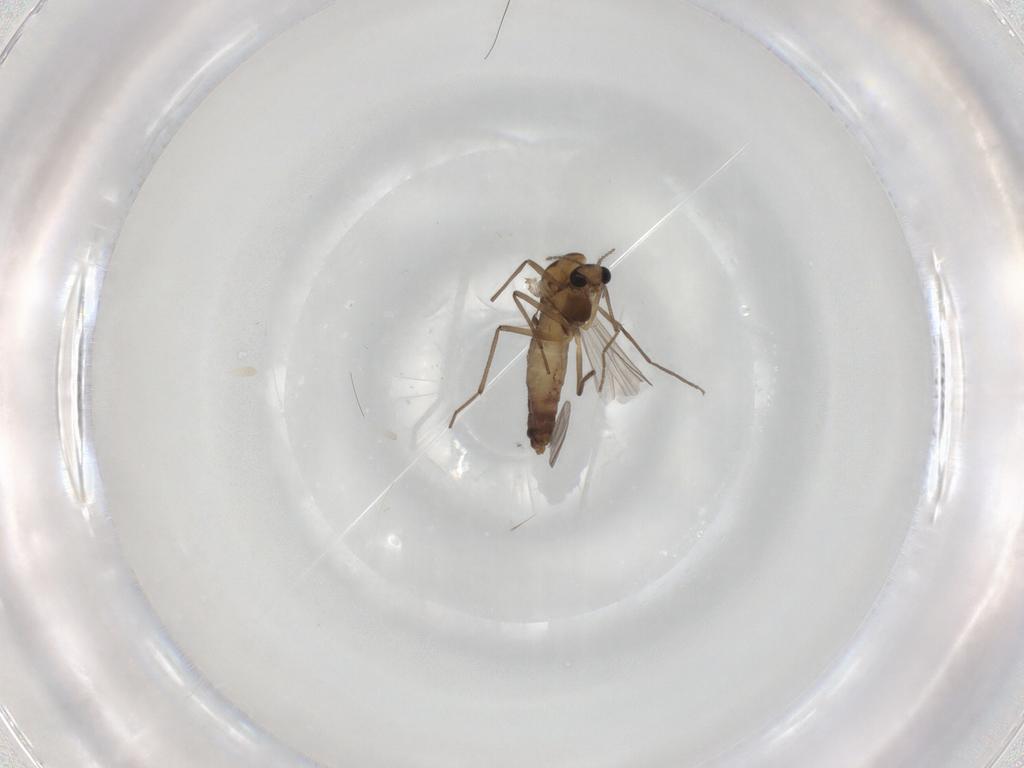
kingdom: Animalia
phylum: Arthropoda
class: Insecta
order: Diptera
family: Chironomidae
